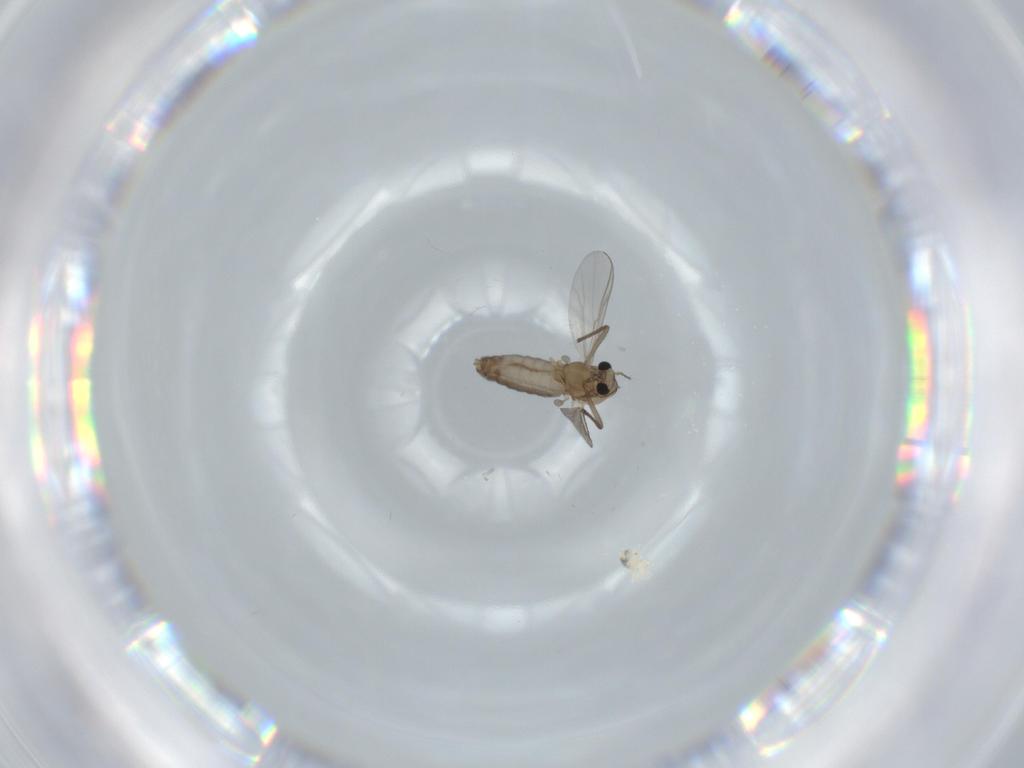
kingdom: Animalia
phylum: Arthropoda
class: Insecta
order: Diptera
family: Chironomidae
